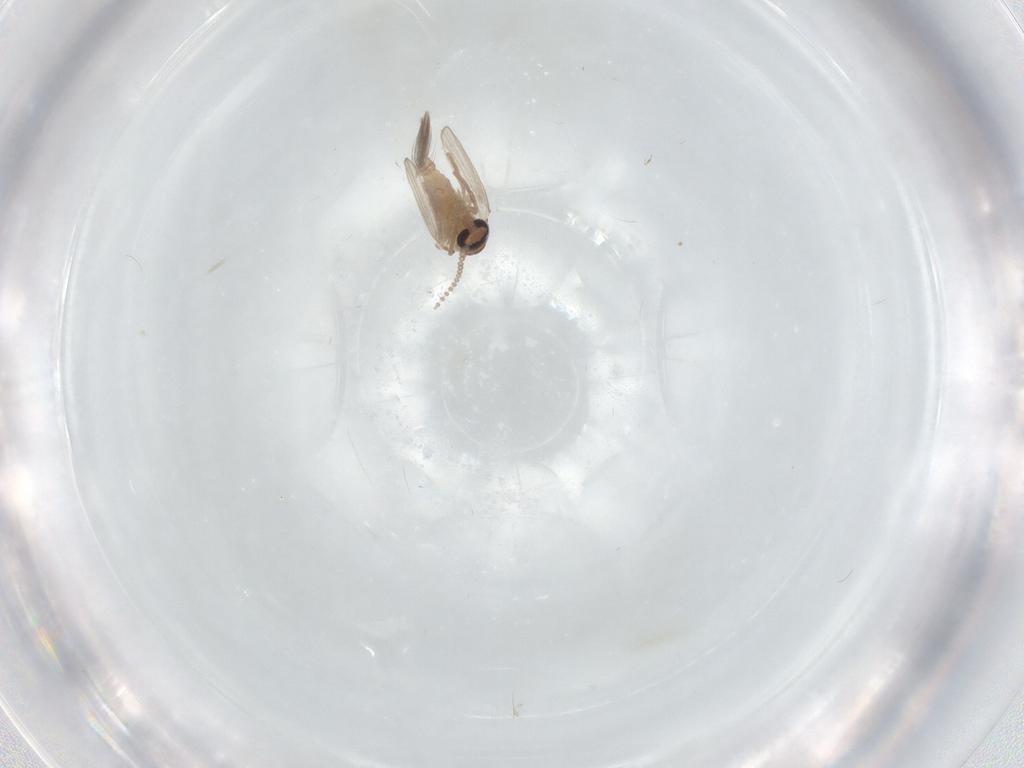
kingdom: Animalia
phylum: Arthropoda
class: Insecta
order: Diptera
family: Psychodidae
